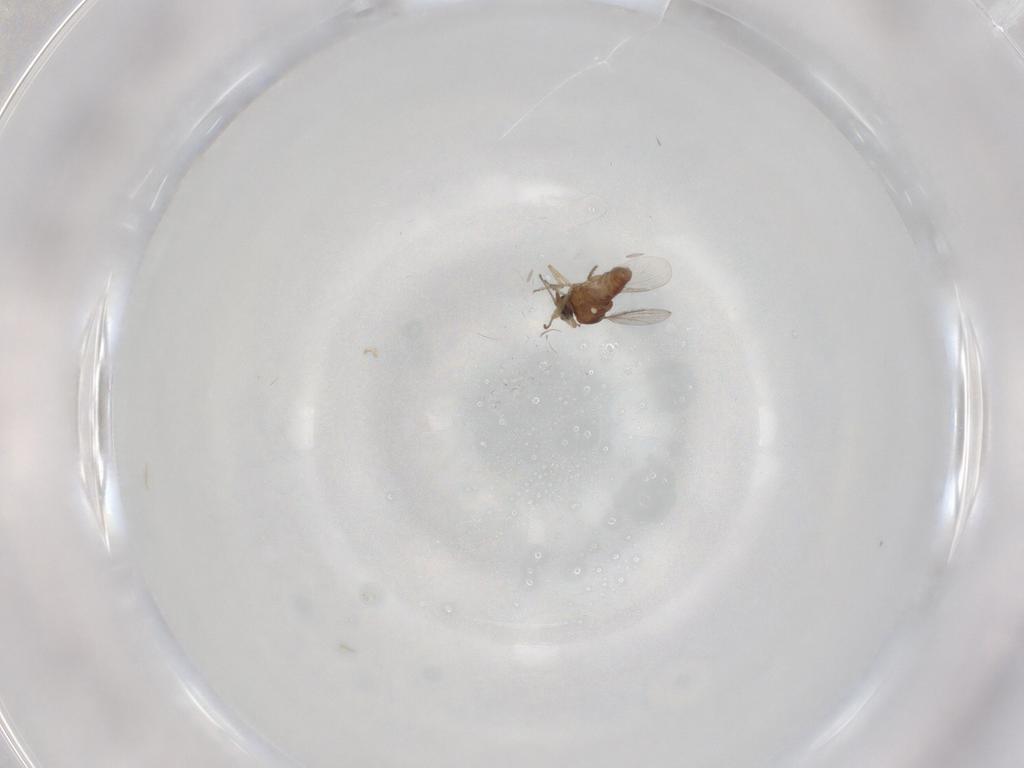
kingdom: Animalia
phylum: Arthropoda
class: Insecta
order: Diptera
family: Ceratopogonidae
